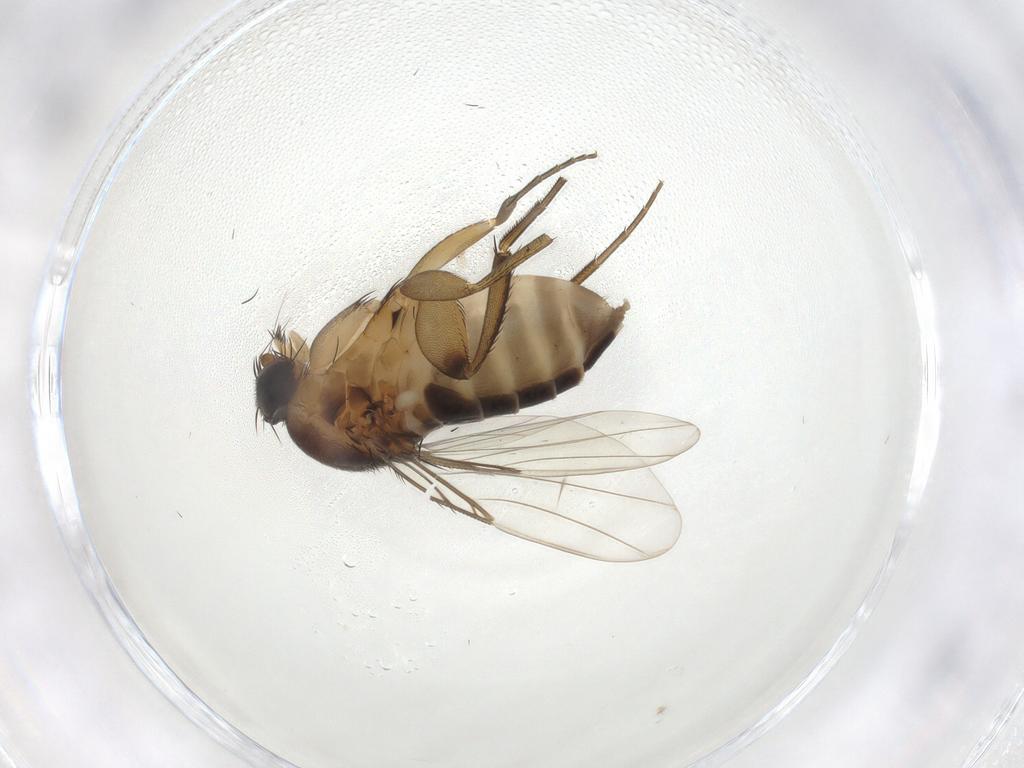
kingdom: Animalia
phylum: Arthropoda
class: Insecta
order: Diptera
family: Phoridae
